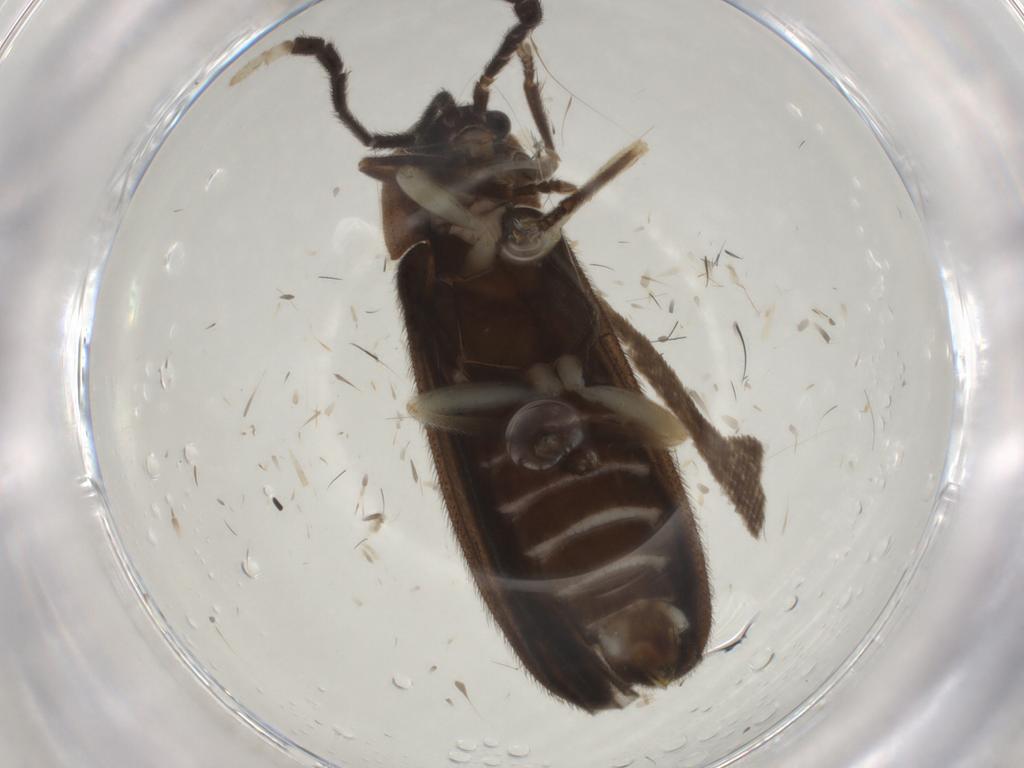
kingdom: Animalia
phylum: Arthropoda
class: Insecta
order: Coleoptera
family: Lampyridae
